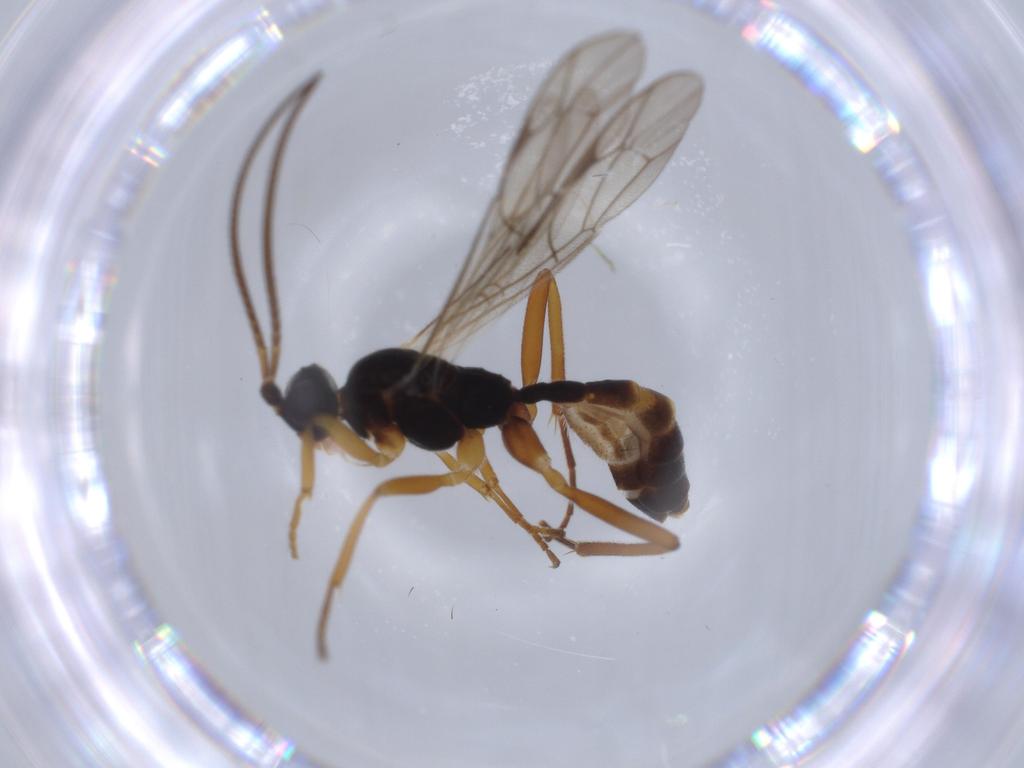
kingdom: Animalia
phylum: Arthropoda
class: Insecta
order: Hymenoptera
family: Ichneumonidae
